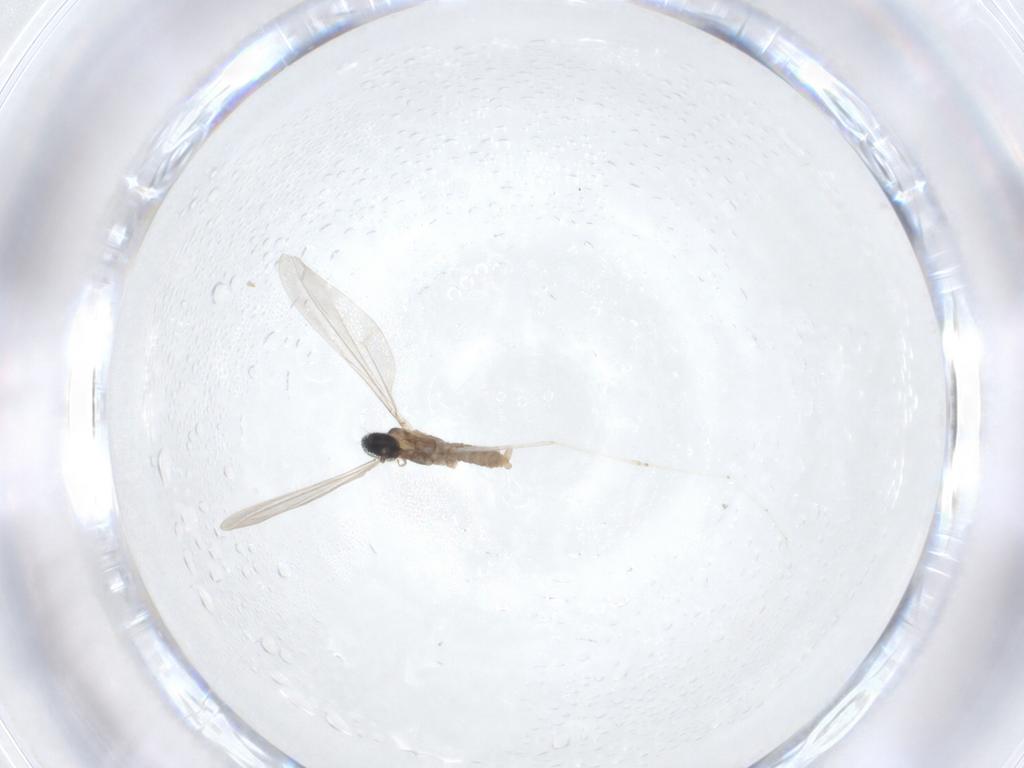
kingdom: Animalia
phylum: Arthropoda
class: Insecta
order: Diptera
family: Cecidomyiidae
